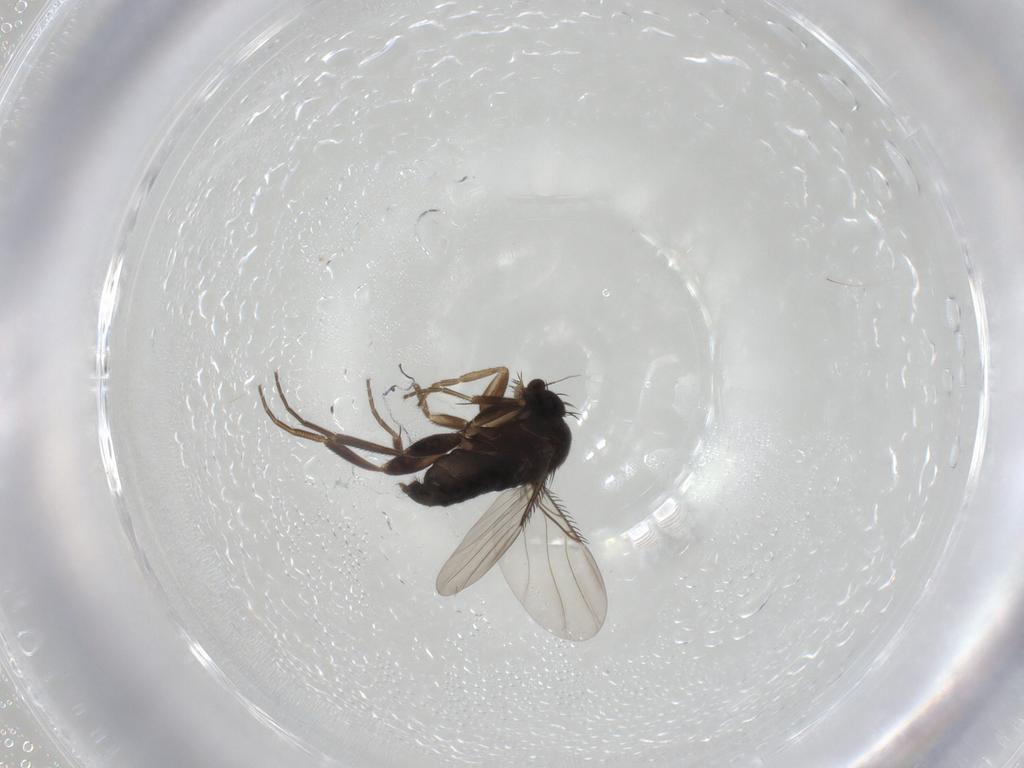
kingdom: Animalia
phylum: Arthropoda
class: Insecta
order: Diptera
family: Phoridae
